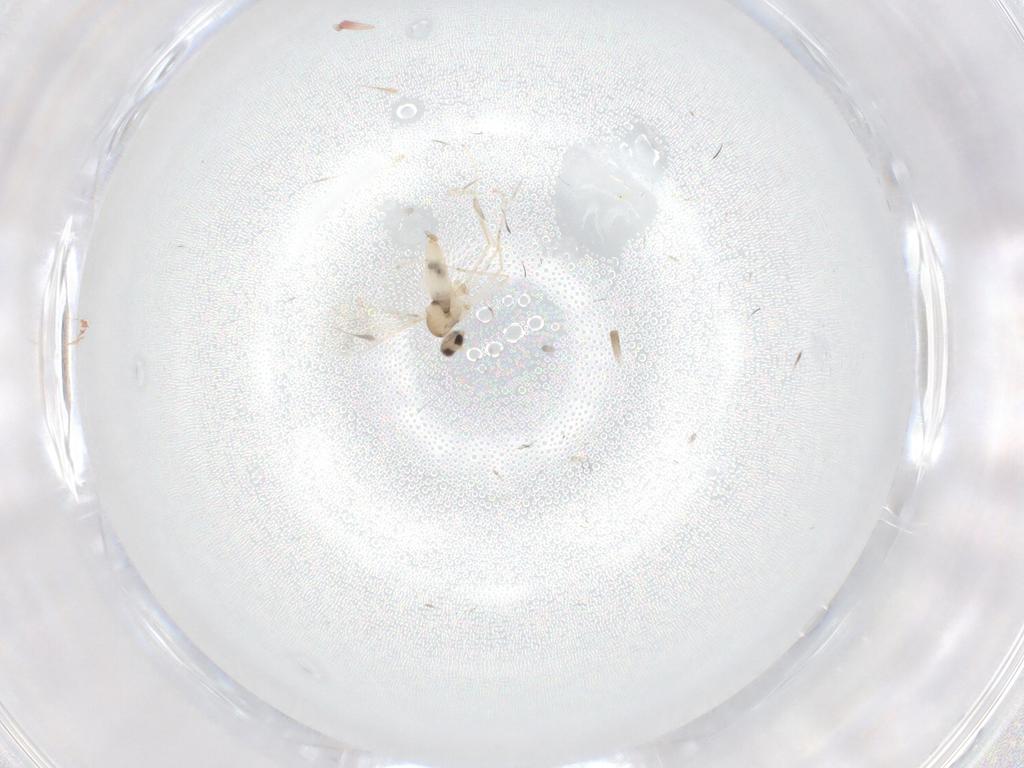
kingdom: Animalia
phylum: Arthropoda
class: Insecta
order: Diptera
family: Cecidomyiidae
